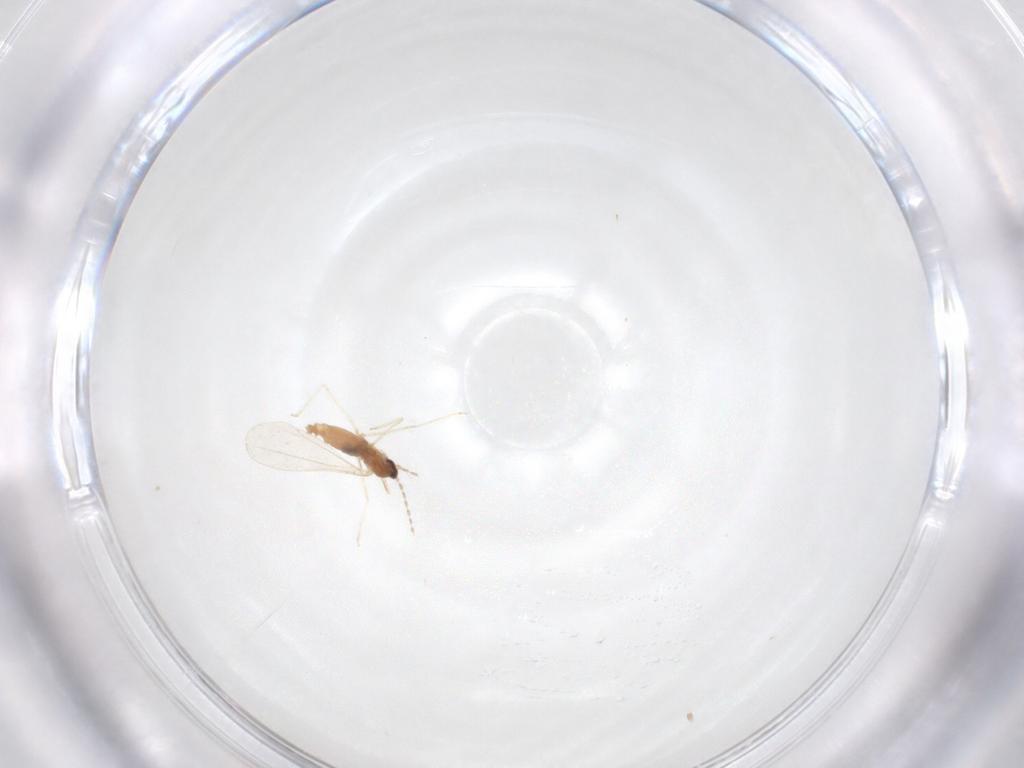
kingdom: Animalia
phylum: Arthropoda
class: Insecta
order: Diptera
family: Cecidomyiidae
